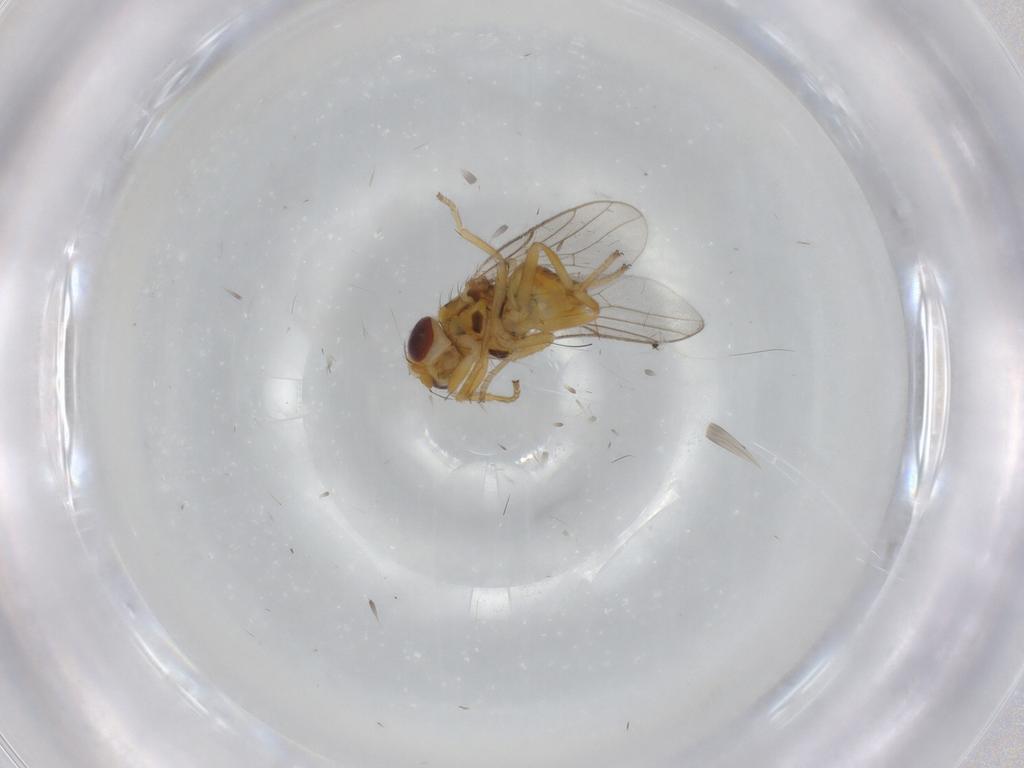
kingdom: Animalia
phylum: Arthropoda
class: Insecta
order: Diptera
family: Chloropidae
